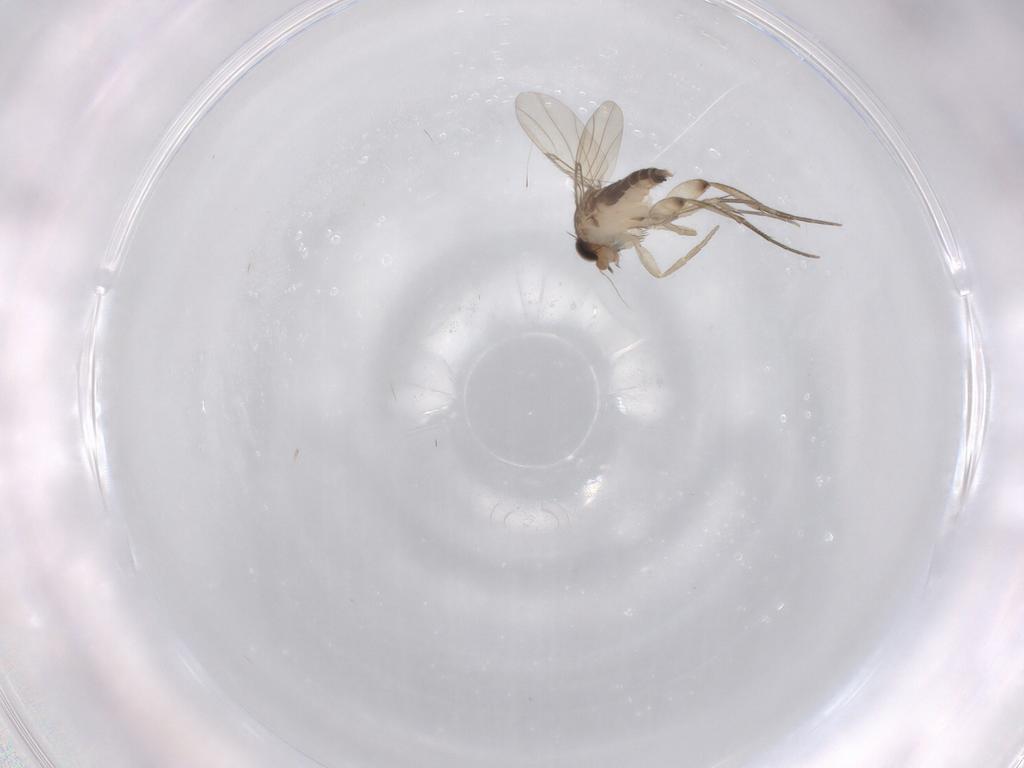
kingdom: Animalia
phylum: Arthropoda
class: Insecta
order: Diptera
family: Phoridae
